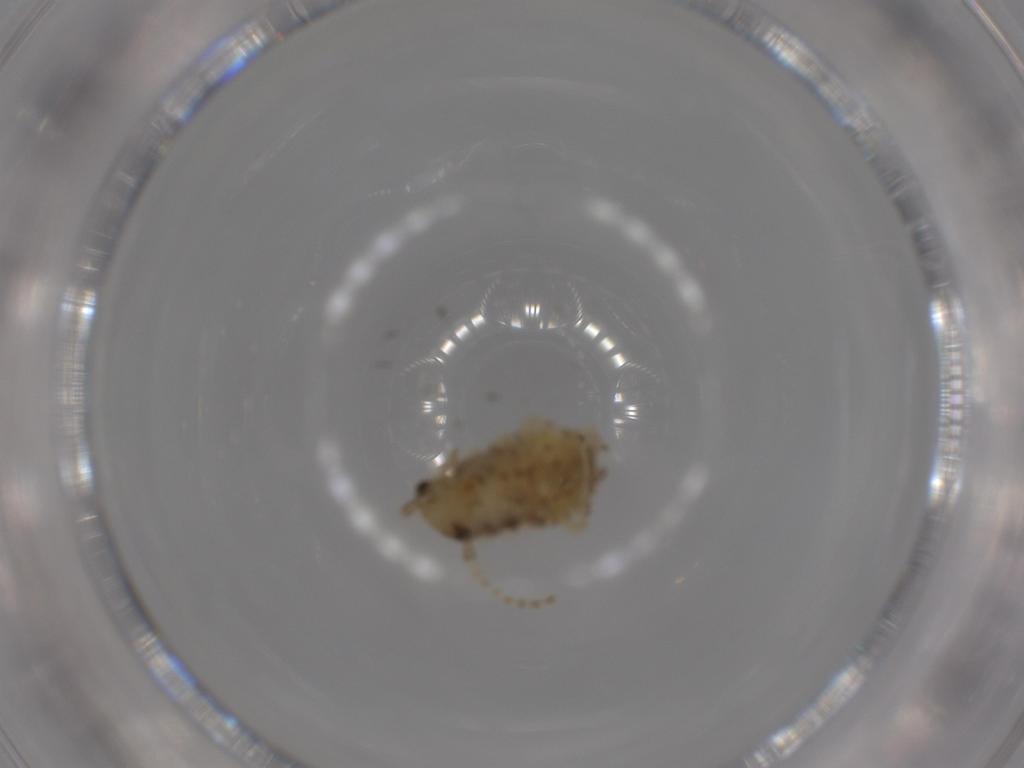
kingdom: Animalia
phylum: Arthropoda
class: Insecta
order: Blattodea
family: Ectobiidae
